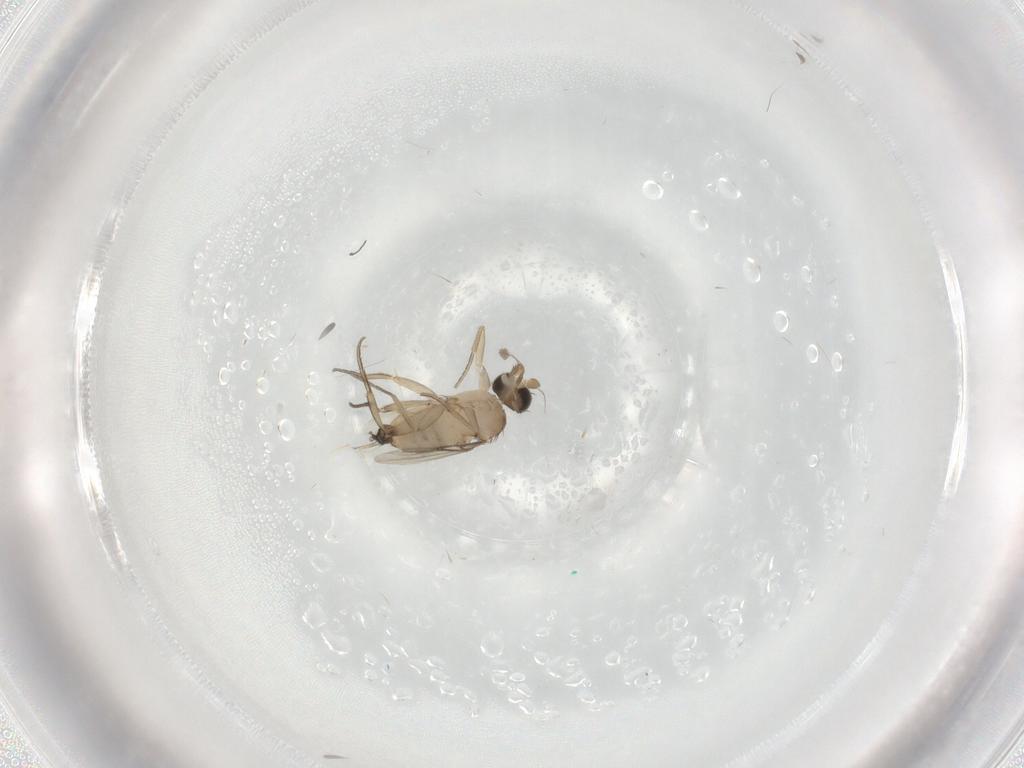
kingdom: Animalia
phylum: Arthropoda
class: Insecta
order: Diptera
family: Phoridae
